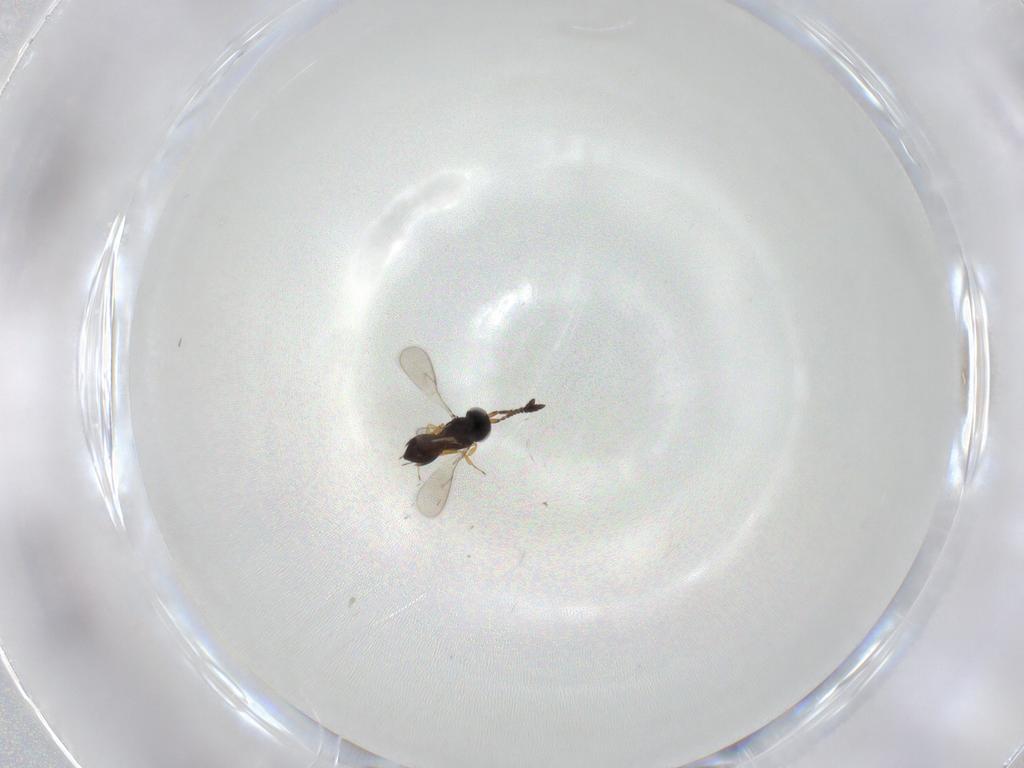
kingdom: Animalia
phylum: Arthropoda
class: Insecta
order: Hymenoptera
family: Scelionidae
